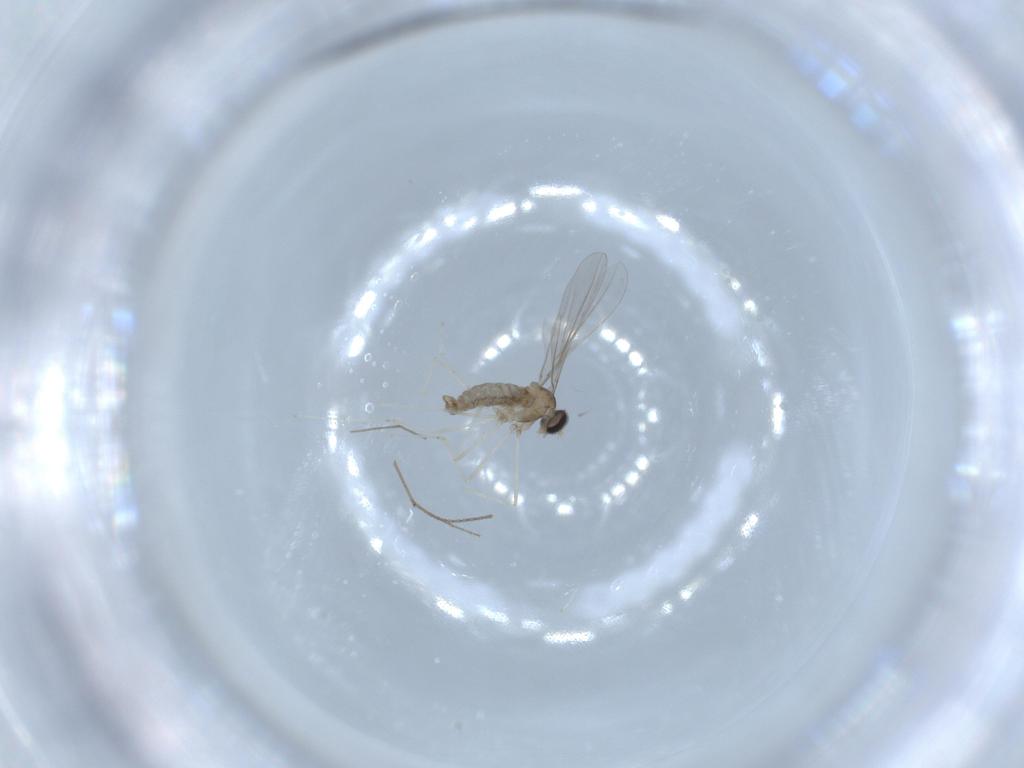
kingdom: Animalia
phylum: Arthropoda
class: Insecta
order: Diptera
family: Cecidomyiidae
